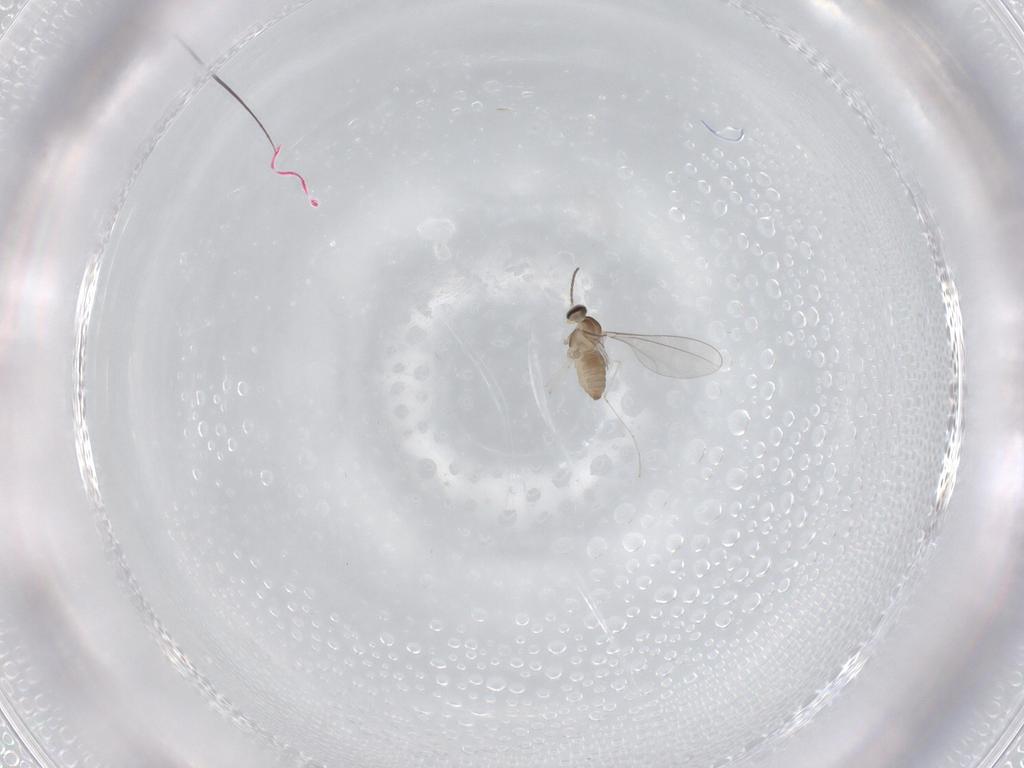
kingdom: Animalia
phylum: Arthropoda
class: Insecta
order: Diptera
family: Cecidomyiidae
